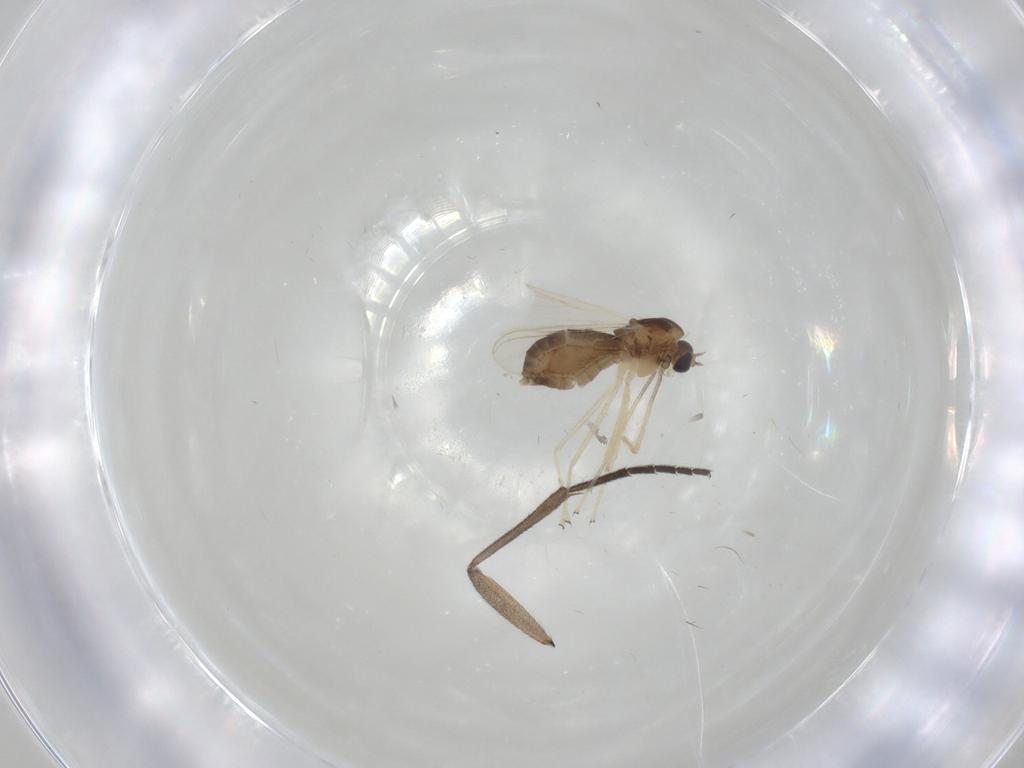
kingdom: Animalia
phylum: Arthropoda
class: Insecta
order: Diptera
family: Chironomidae
